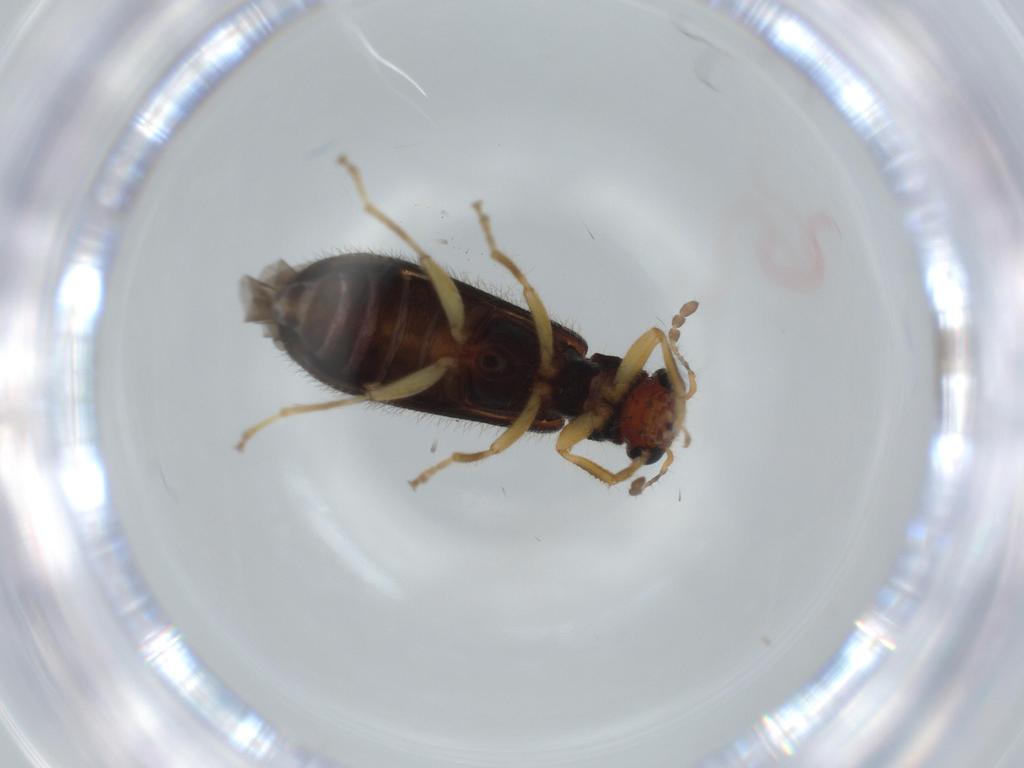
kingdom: Animalia
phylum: Arthropoda
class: Insecta
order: Coleoptera
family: Cleridae
